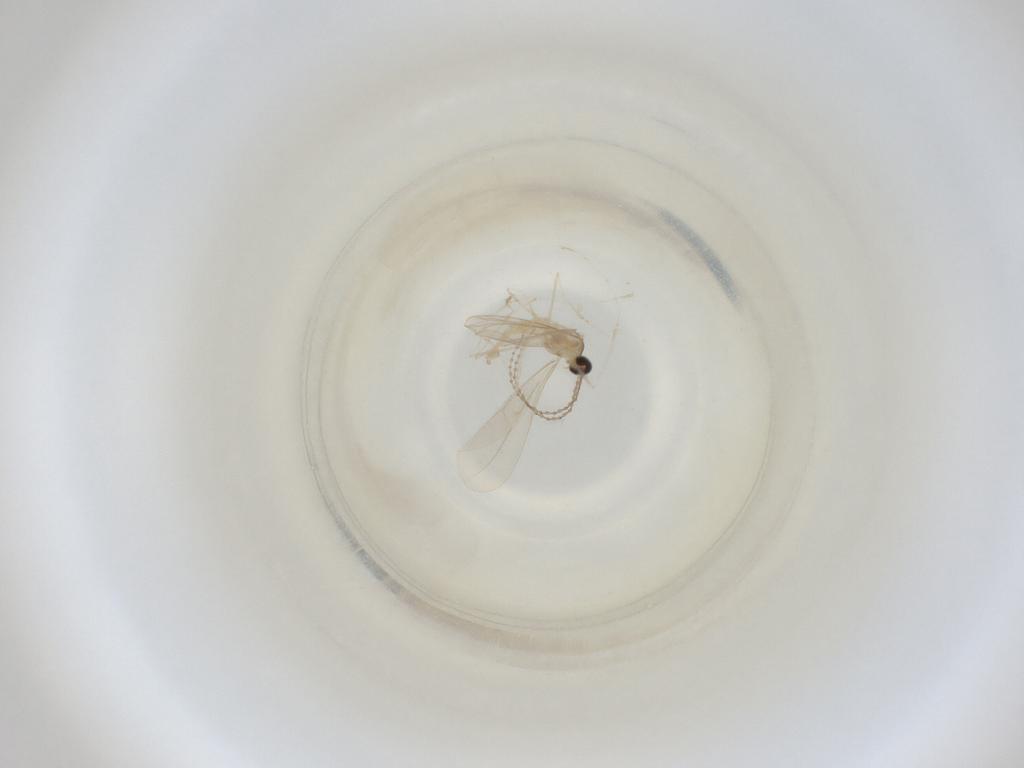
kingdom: Animalia
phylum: Arthropoda
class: Insecta
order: Diptera
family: Cecidomyiidae
